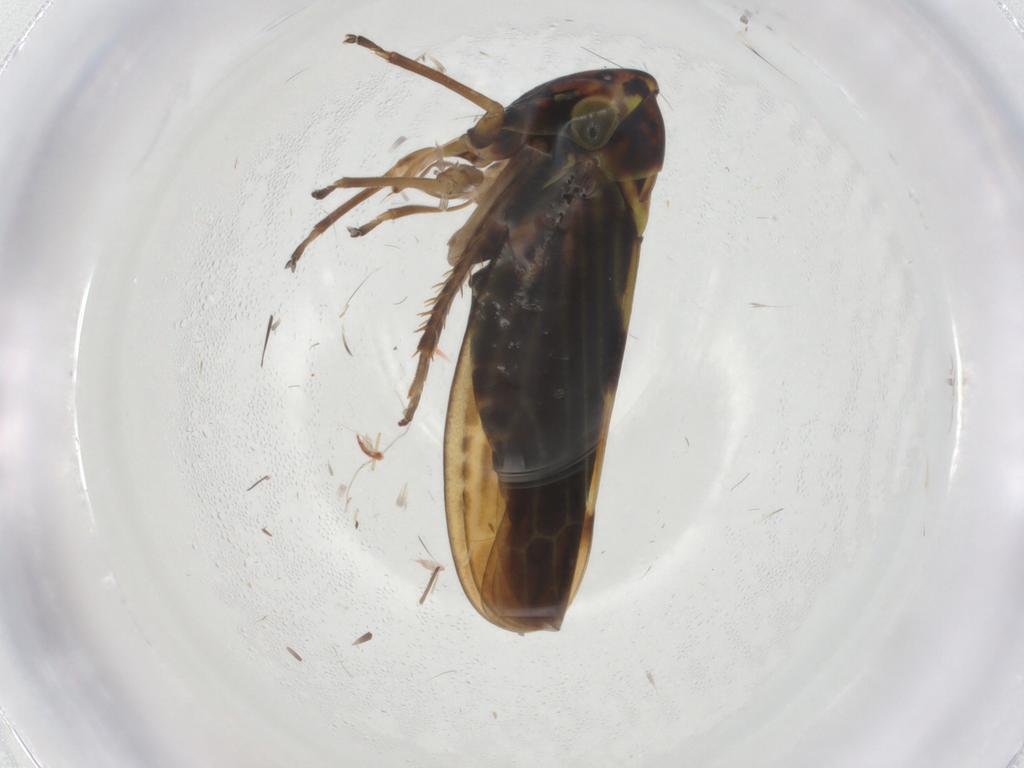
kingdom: Animalia
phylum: Arthropoda
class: Insecta
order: Hemiptera
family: Cicadellidae
